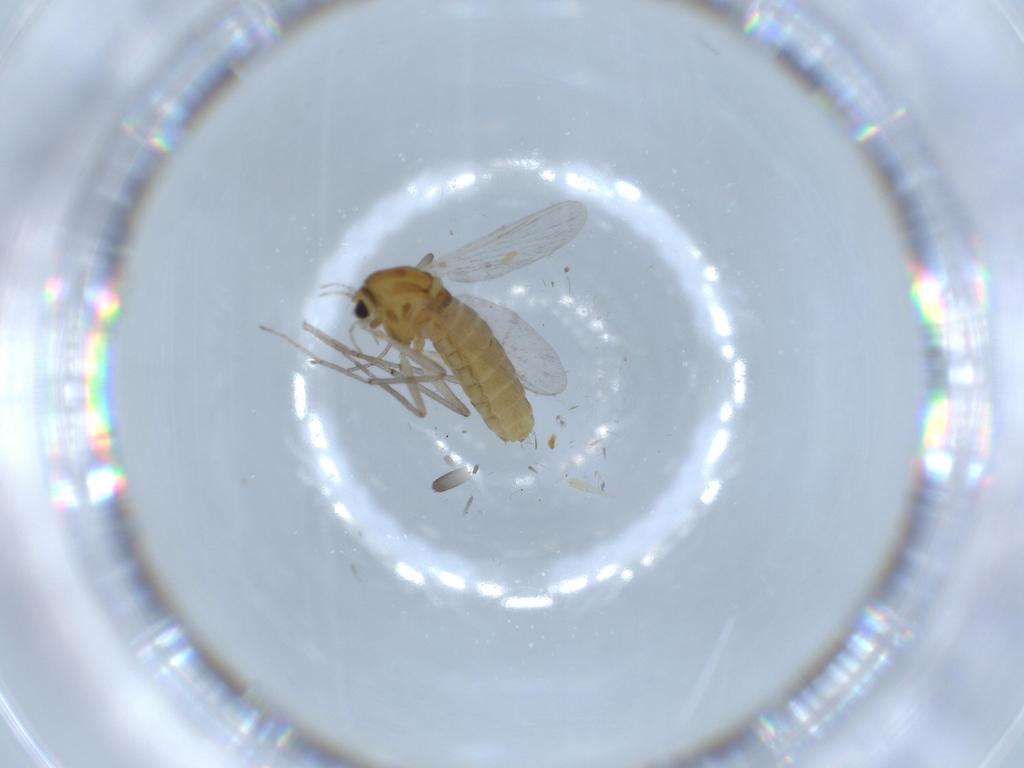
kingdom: Animalia
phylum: Arthropoda
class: Insecta
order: Diptera
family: Chironomidae
